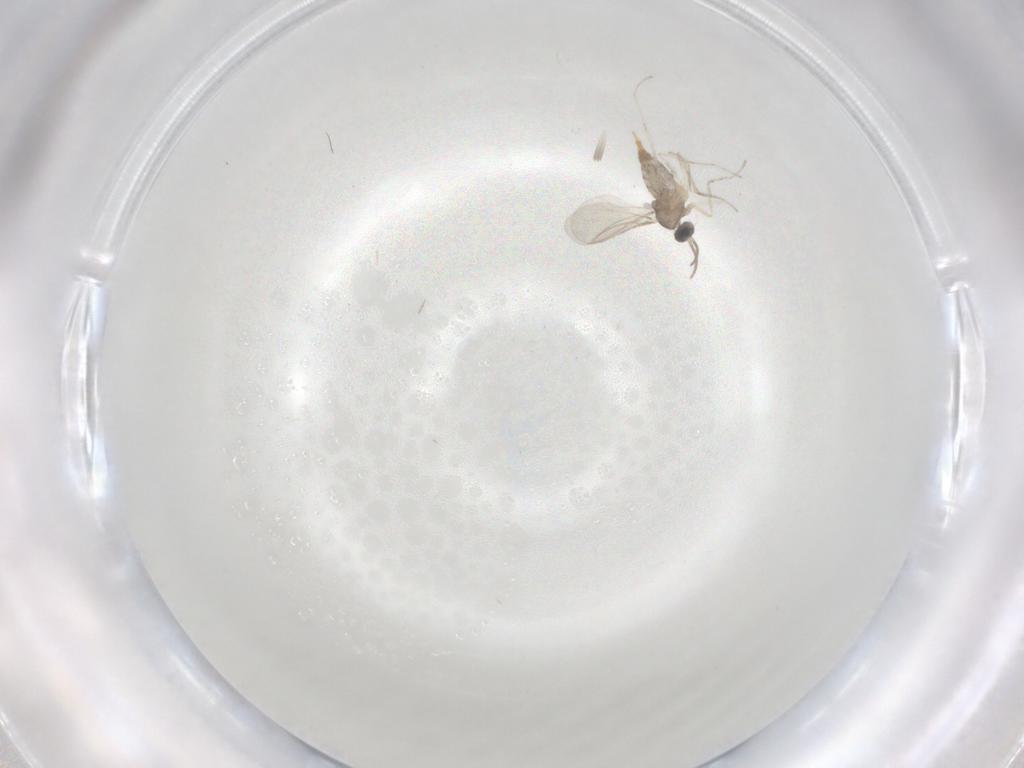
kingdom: Animalia
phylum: Arthropoda
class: Insecta
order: Diptera
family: Cecidomyiidae
